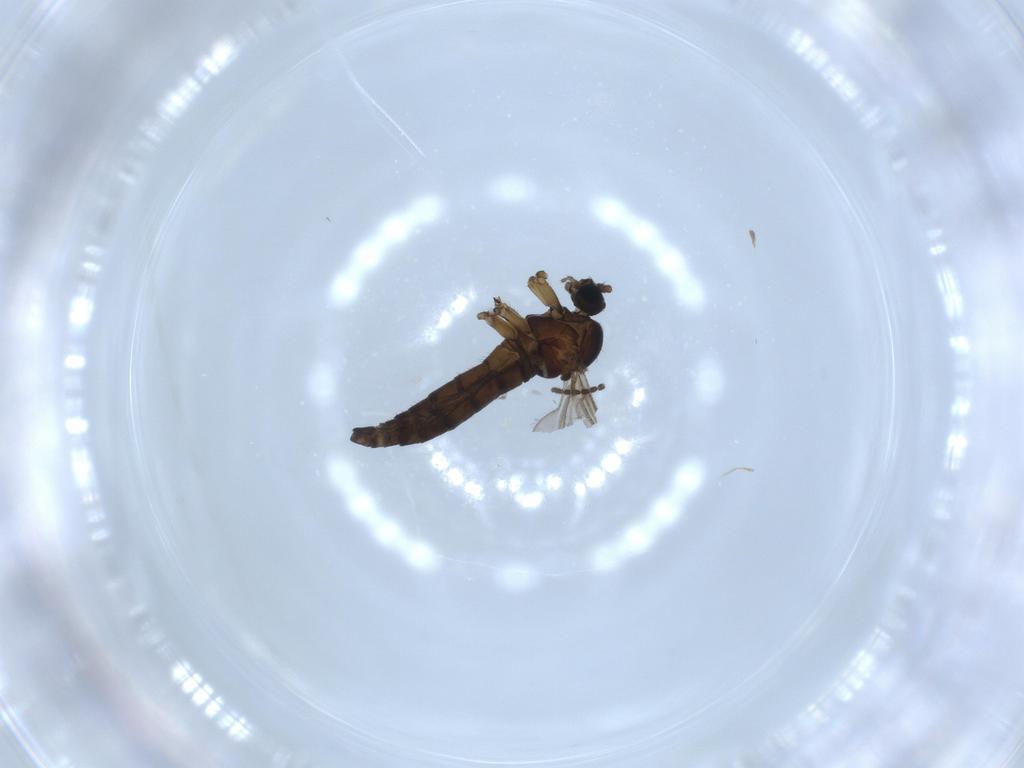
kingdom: Animalia
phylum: Arthropoda
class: Insecta
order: Diptera
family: Sciaridae
